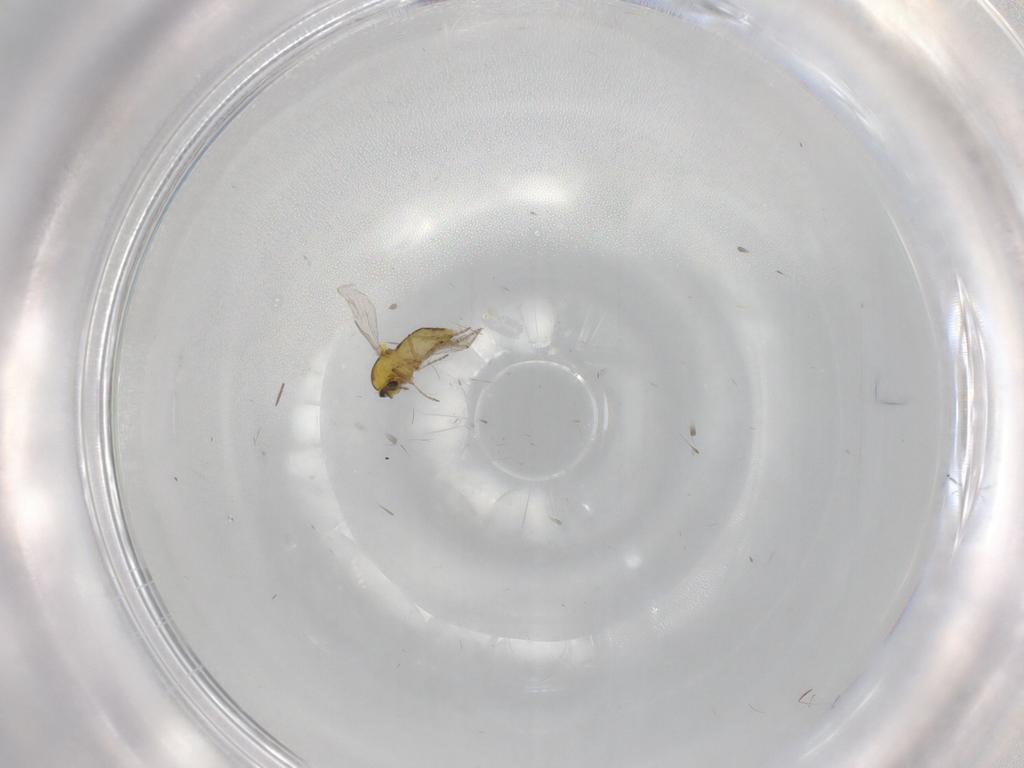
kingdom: Animalia
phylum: Arthropoda
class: Insecta
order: Diptera
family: Ceratopogonidae
